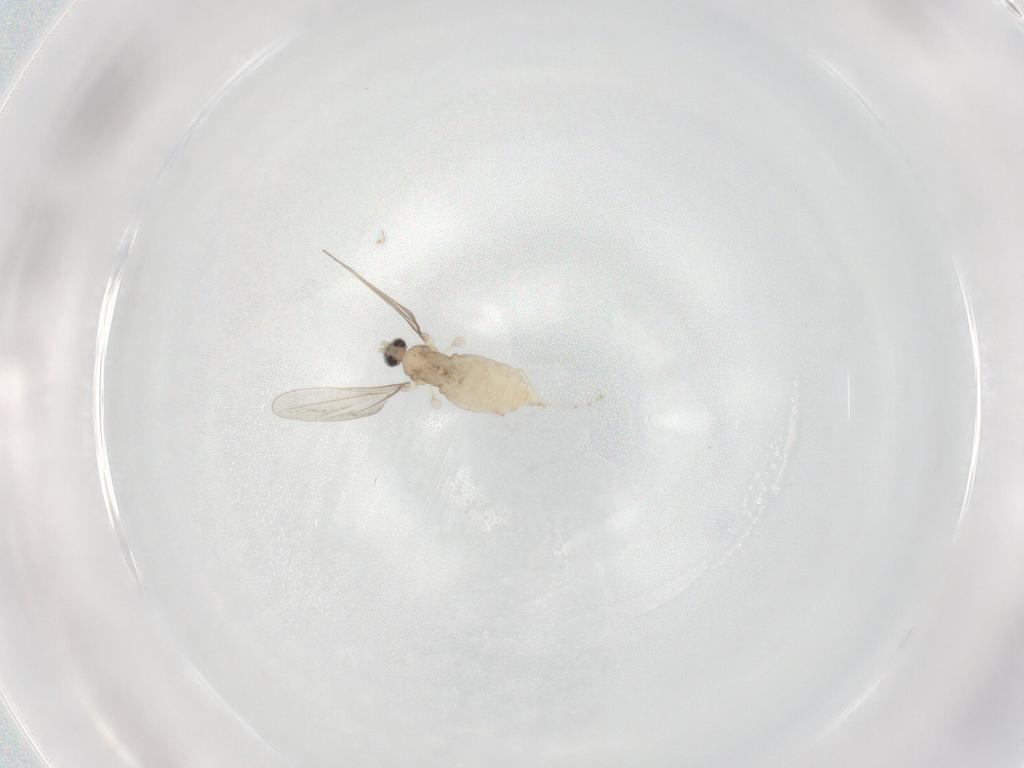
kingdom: Animalia
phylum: Arthropoda
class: Insecta
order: Diptera
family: Cecidomyiidae
